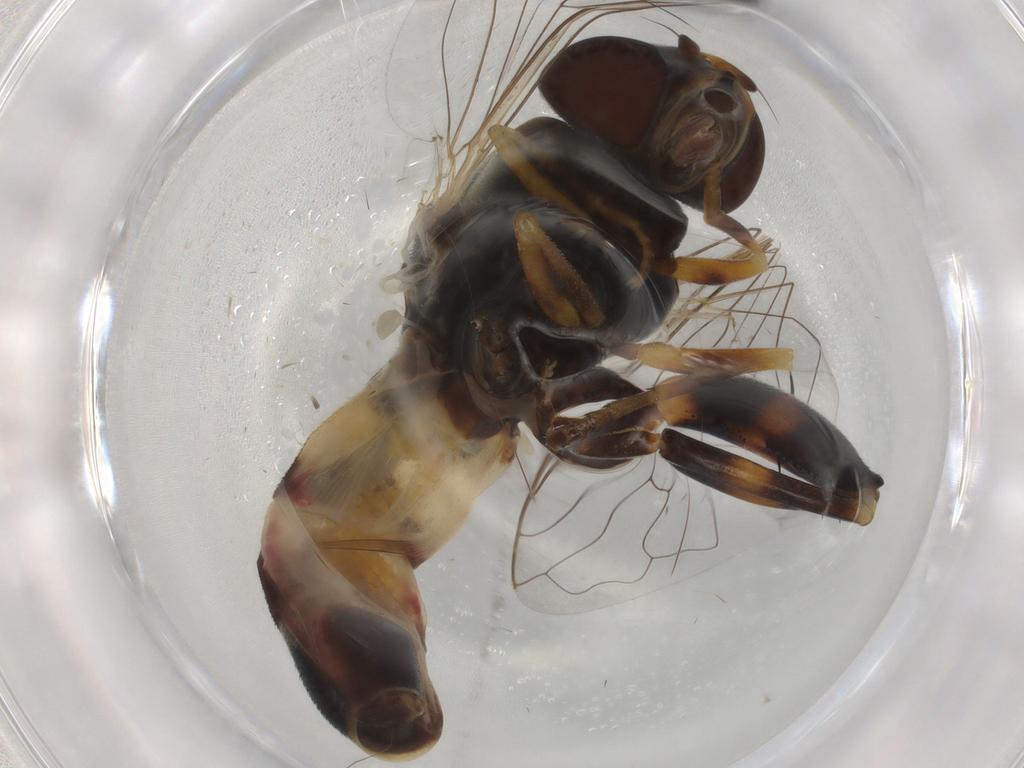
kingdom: Animalia
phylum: Arthropoda
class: Insecta
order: Diptera
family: Chironomidae
